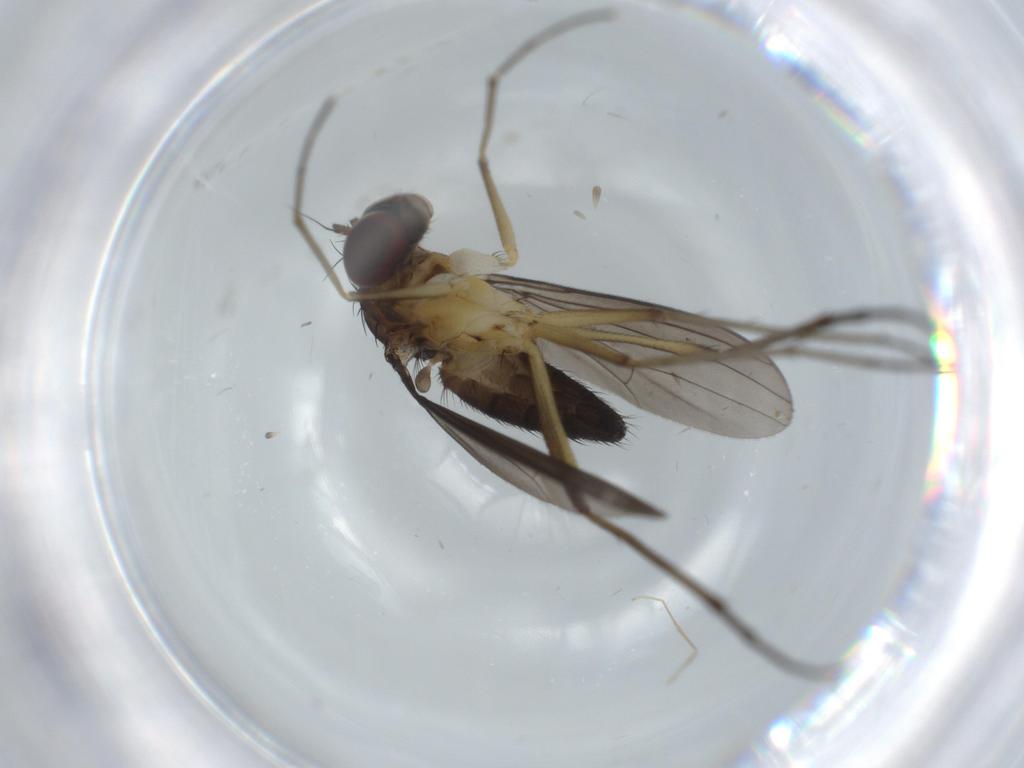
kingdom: Animalia
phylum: Arthropoda
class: Insecta
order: Diptera
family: Dolichopodidae
